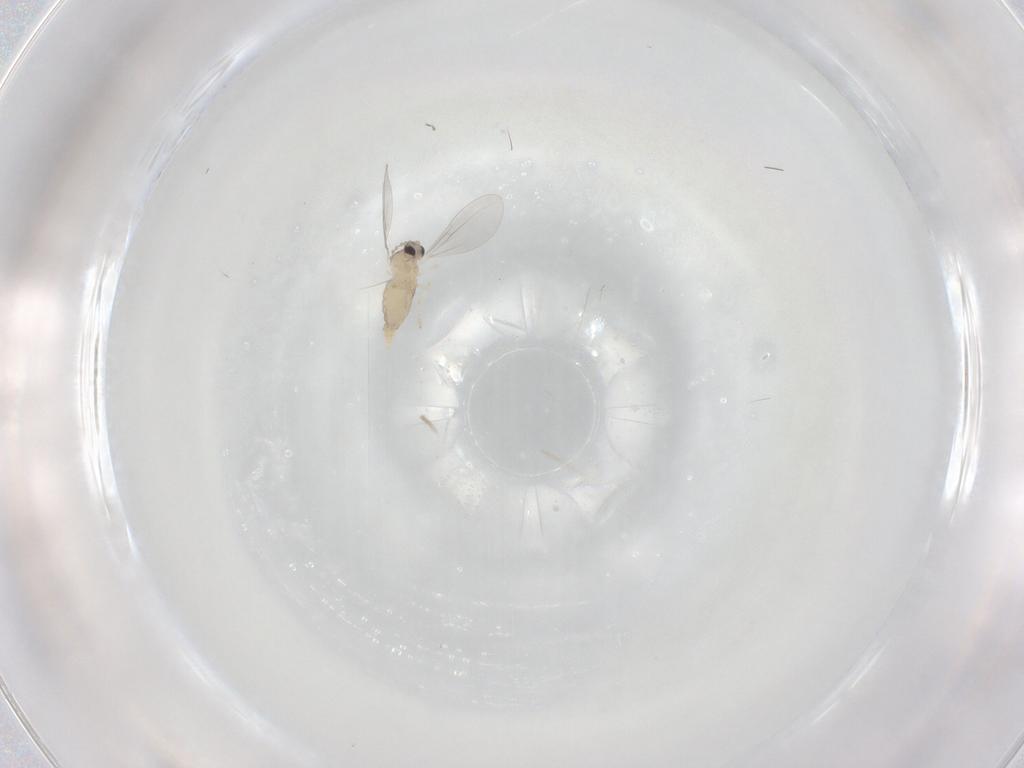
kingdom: Animalia
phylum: Arthropoda
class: Insecta
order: Diptera
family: Cecidomyiidae
